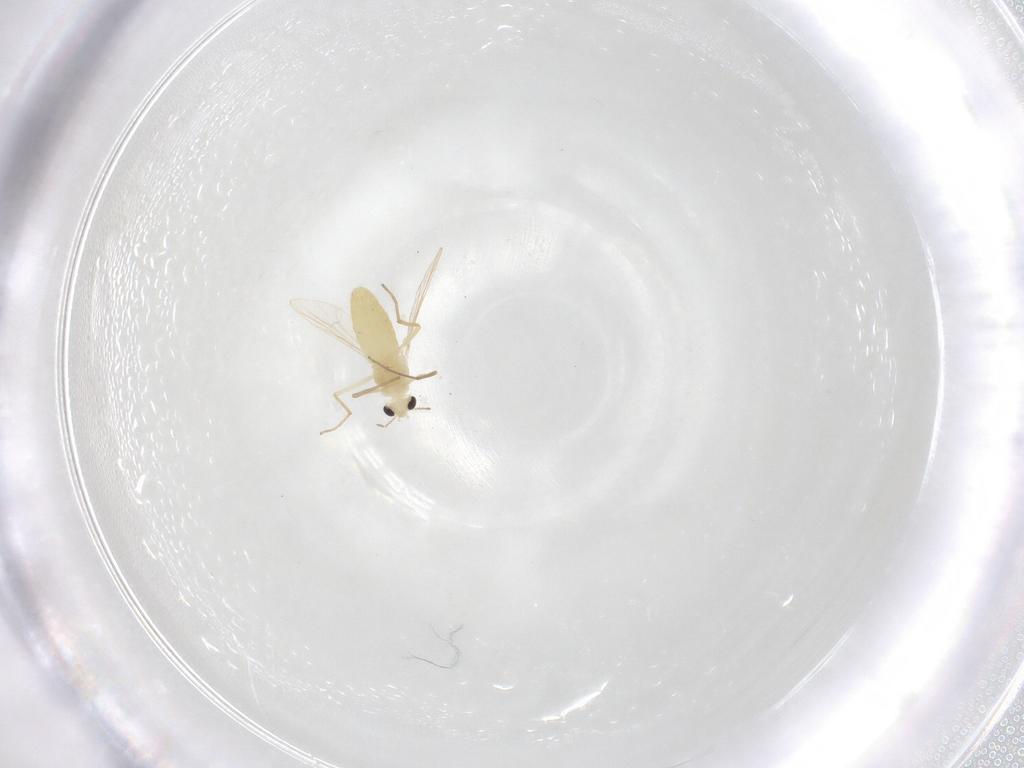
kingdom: Animalia
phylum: Arthropoda
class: Insecta
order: Diptera
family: Chironomidae
